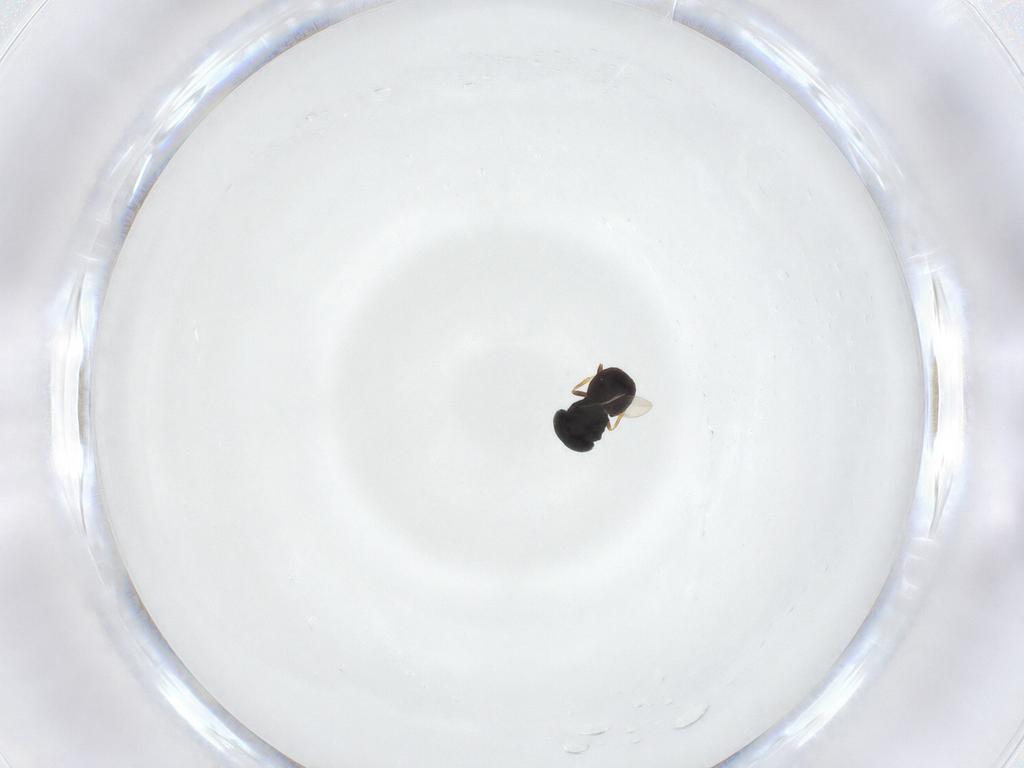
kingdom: Animalia
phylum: Arthropoda
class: Insecta
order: Hymenoptera
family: Scelionidae
